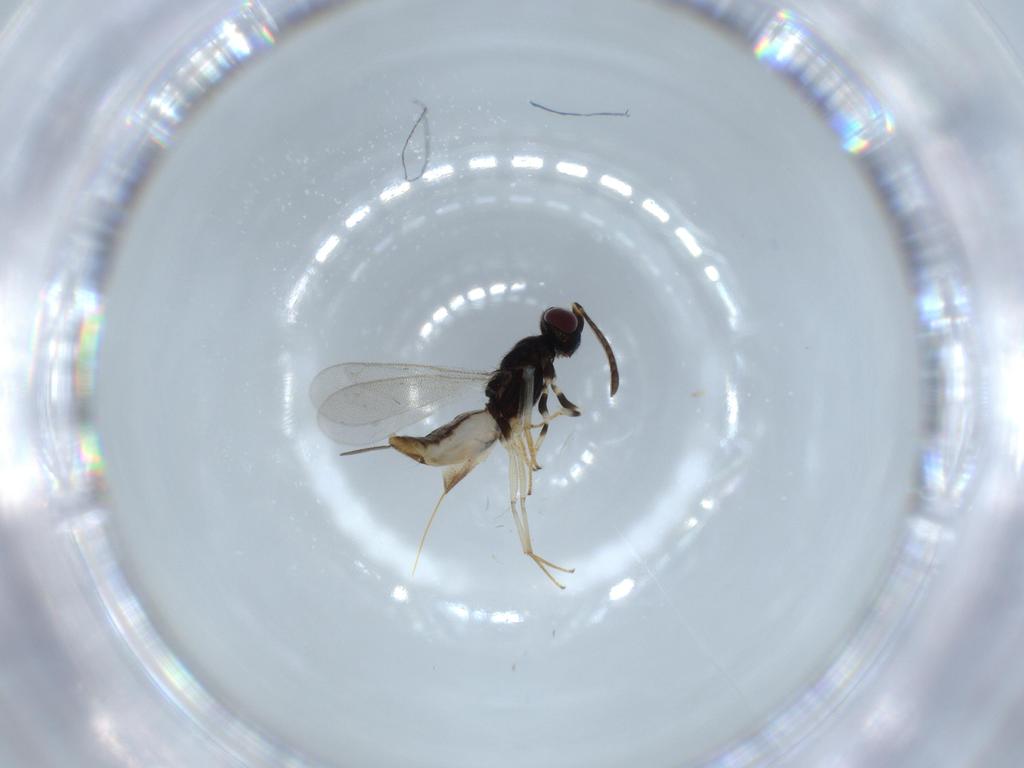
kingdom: Animalia
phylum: Arthropoda
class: Insecta
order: Hymenoptera
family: Eupelmidae
